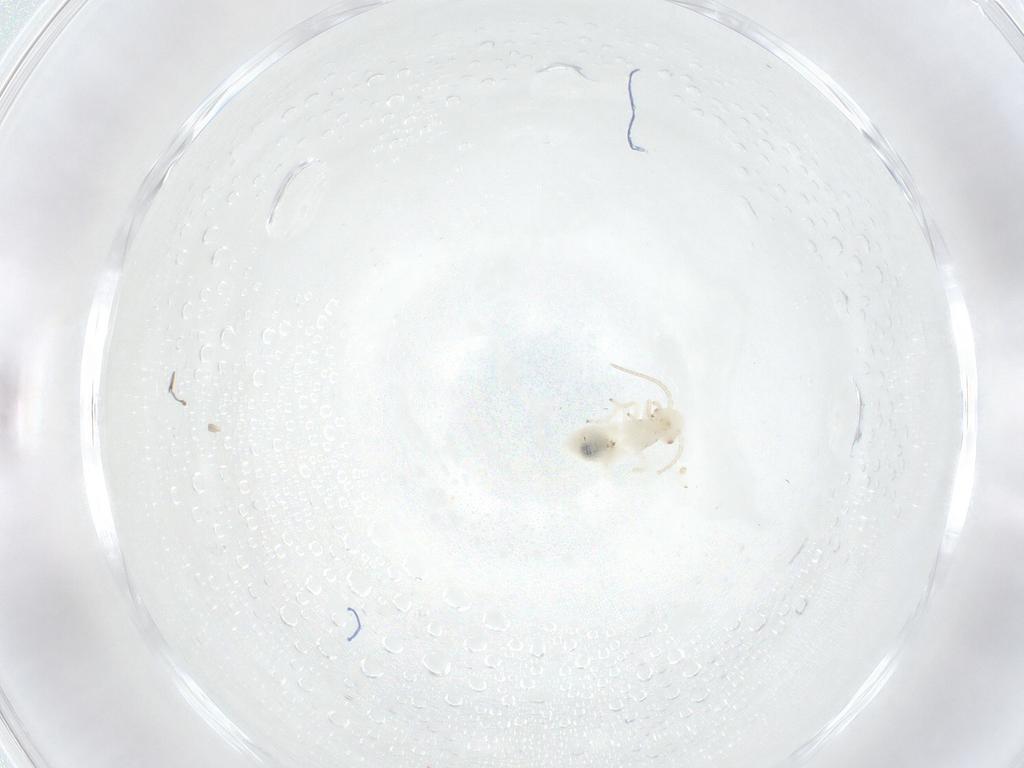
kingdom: Animalia
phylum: Arthropoda
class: Insecta
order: Psocodea
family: Caeciliusidae
